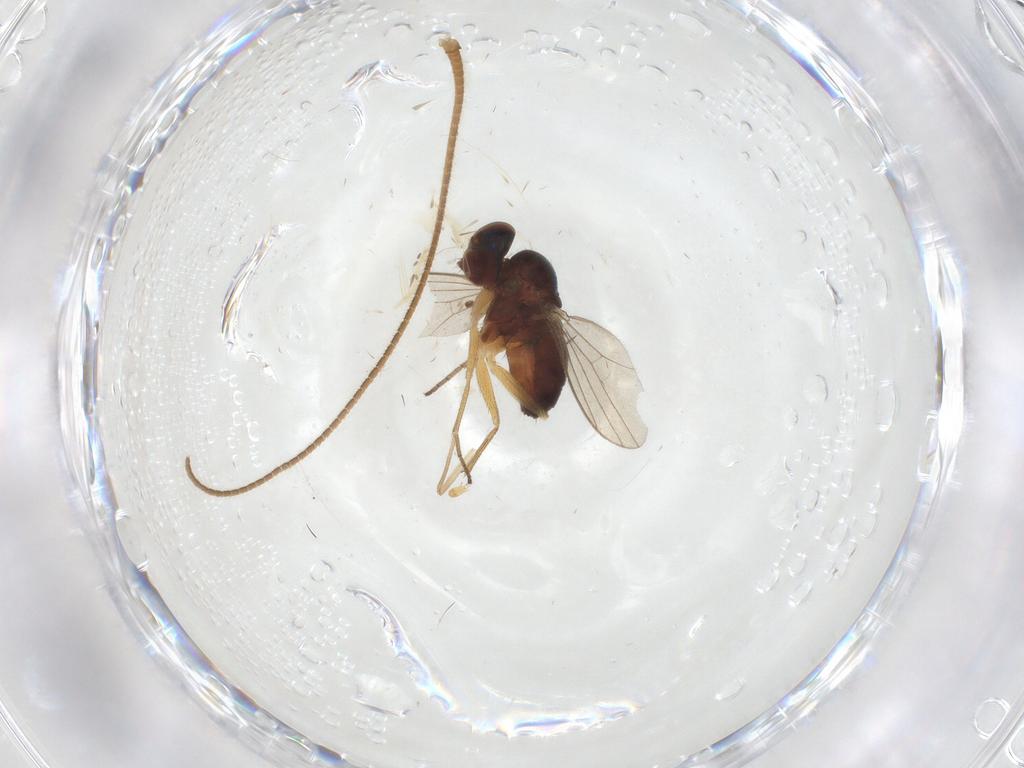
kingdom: Animalia
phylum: Arthropoda
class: Insecta
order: Diptera
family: Dolichopodidae
